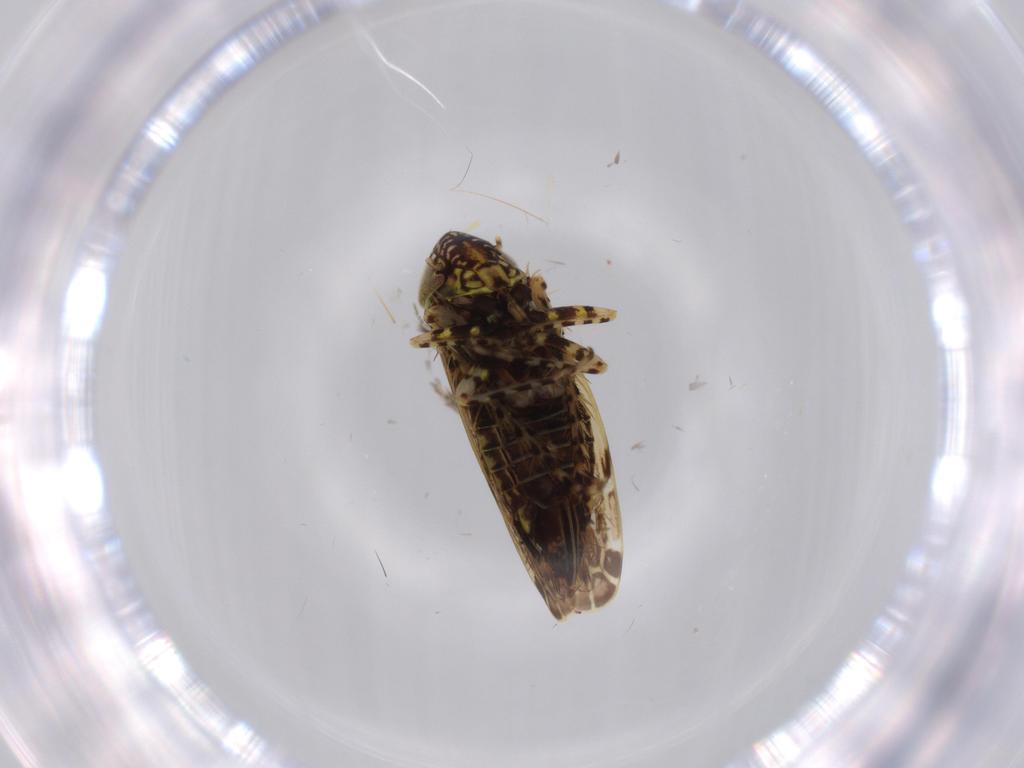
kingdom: Animalia
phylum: Arthropoda
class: Insecta
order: Hemiptera
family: Cicadellidae
